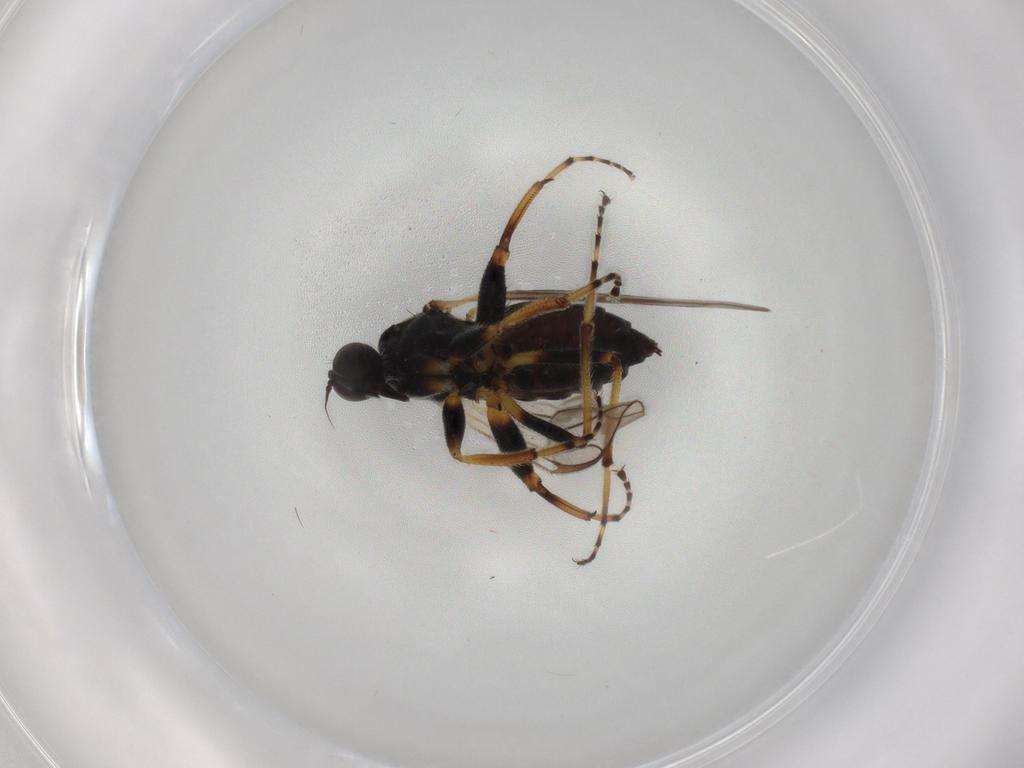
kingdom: Animalia
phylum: Arthropoda
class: Insecta
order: Diptera
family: Hybotidae
